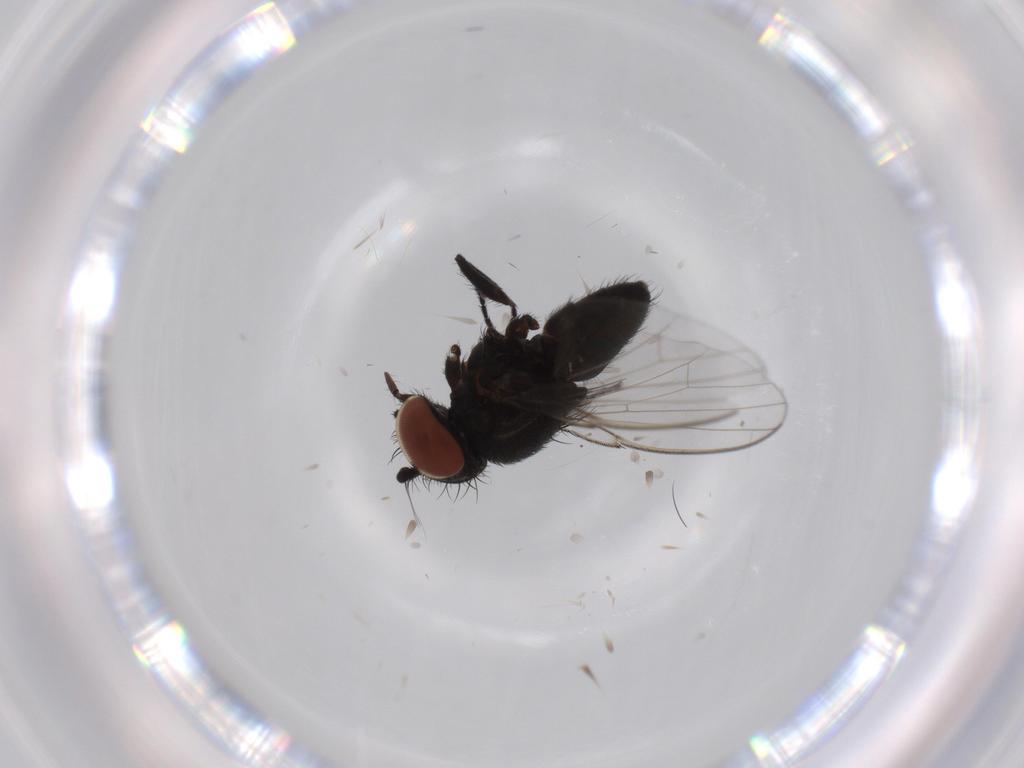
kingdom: Animalia
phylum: Arthropoda
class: Insecta
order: Diptera
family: Milichiidae
